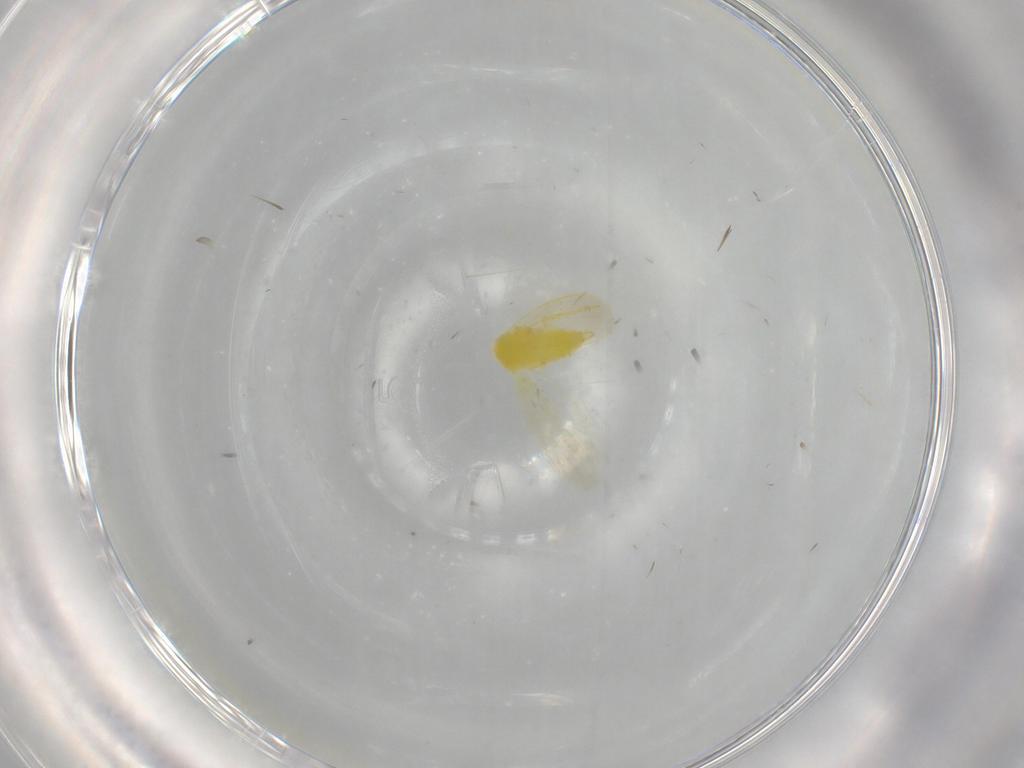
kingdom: Animalia
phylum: Arthropoda
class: Insecta
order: Hemiptera
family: Aleyrodidae
